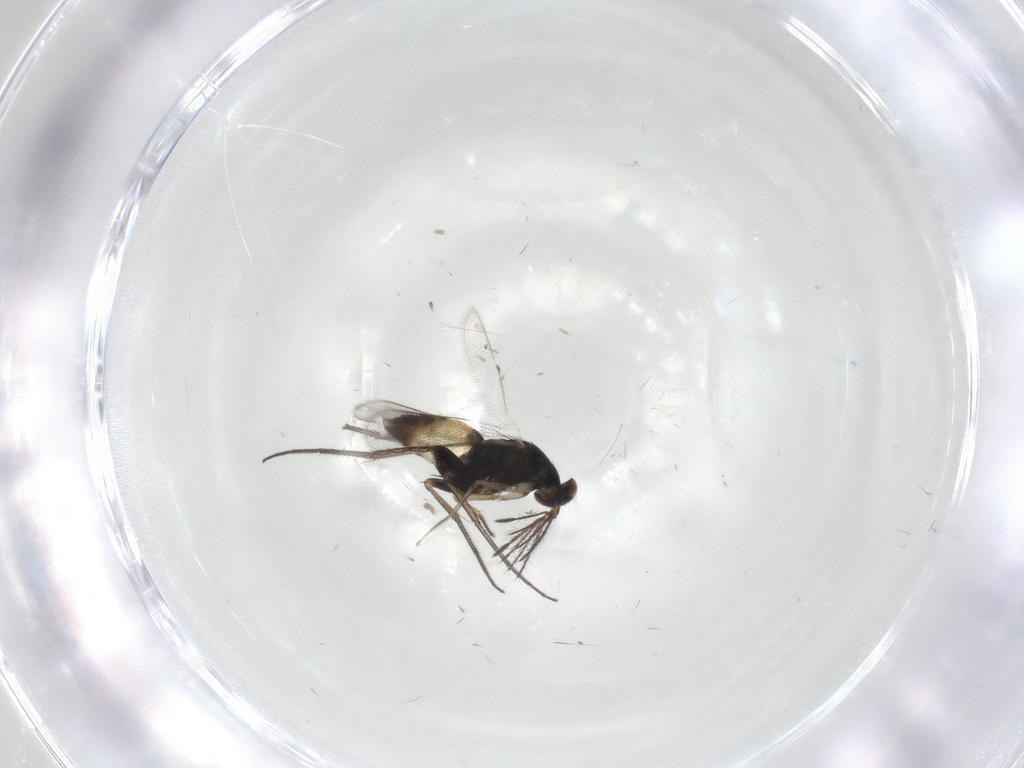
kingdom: Animalia
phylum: Arthropoda
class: Insecta
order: Hymenoptera
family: Eulophidae
